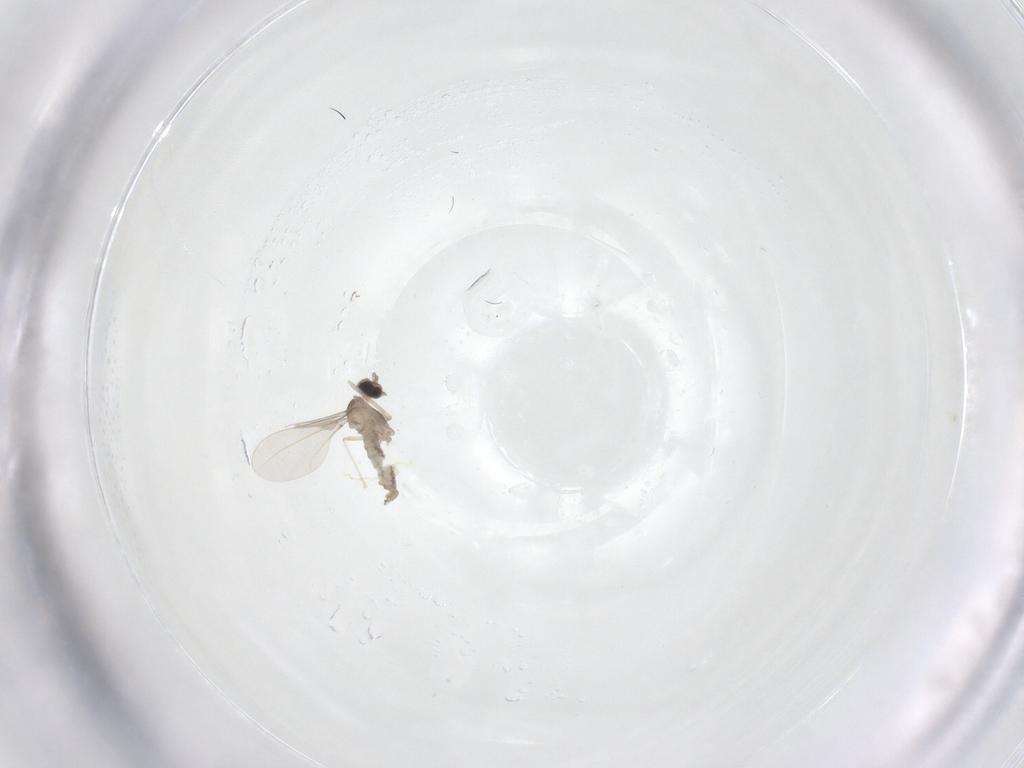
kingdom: Animalia
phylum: Arthropoda
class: Insecta
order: Diptera
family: Cecidomyiidae
